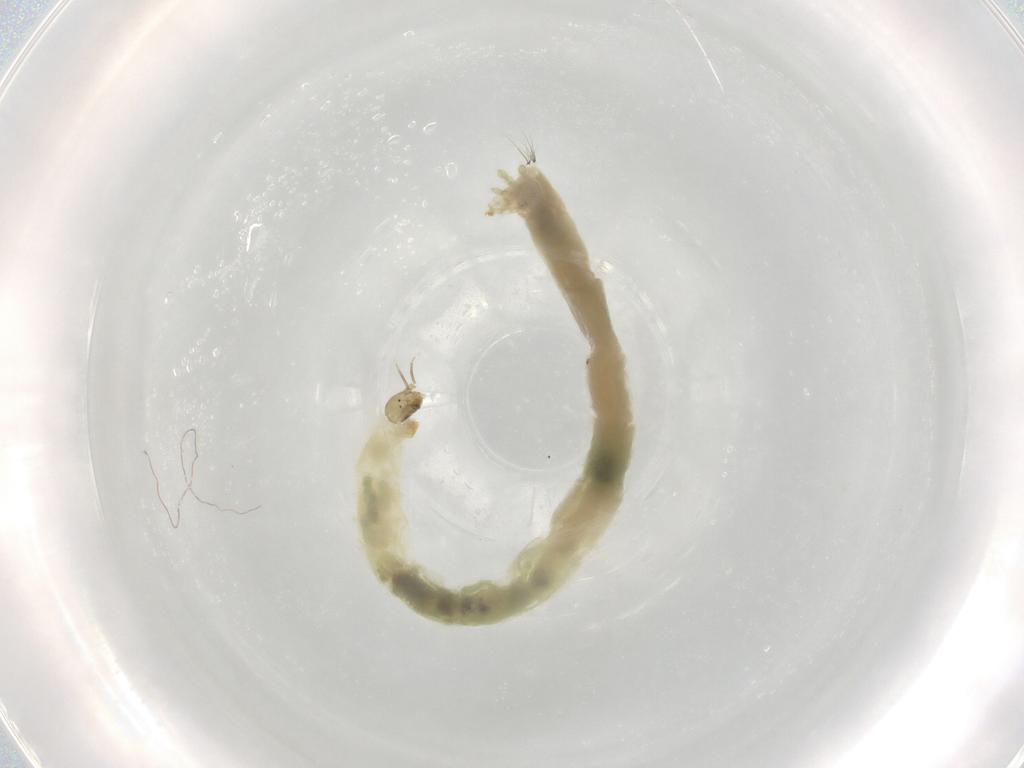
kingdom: Animalia
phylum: Arthropoda
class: Insecta
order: Diptera
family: Chironomidae
